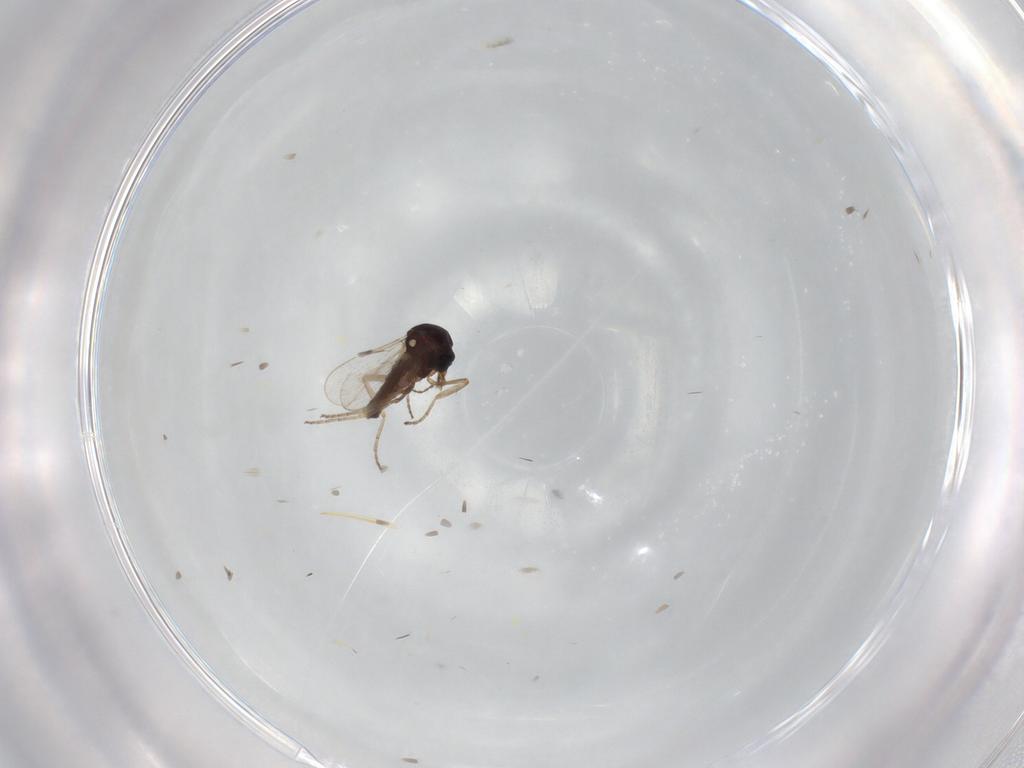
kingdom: Animalia
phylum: Arthropoda
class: Insecta
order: Diptera
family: Ceratopogonidae
